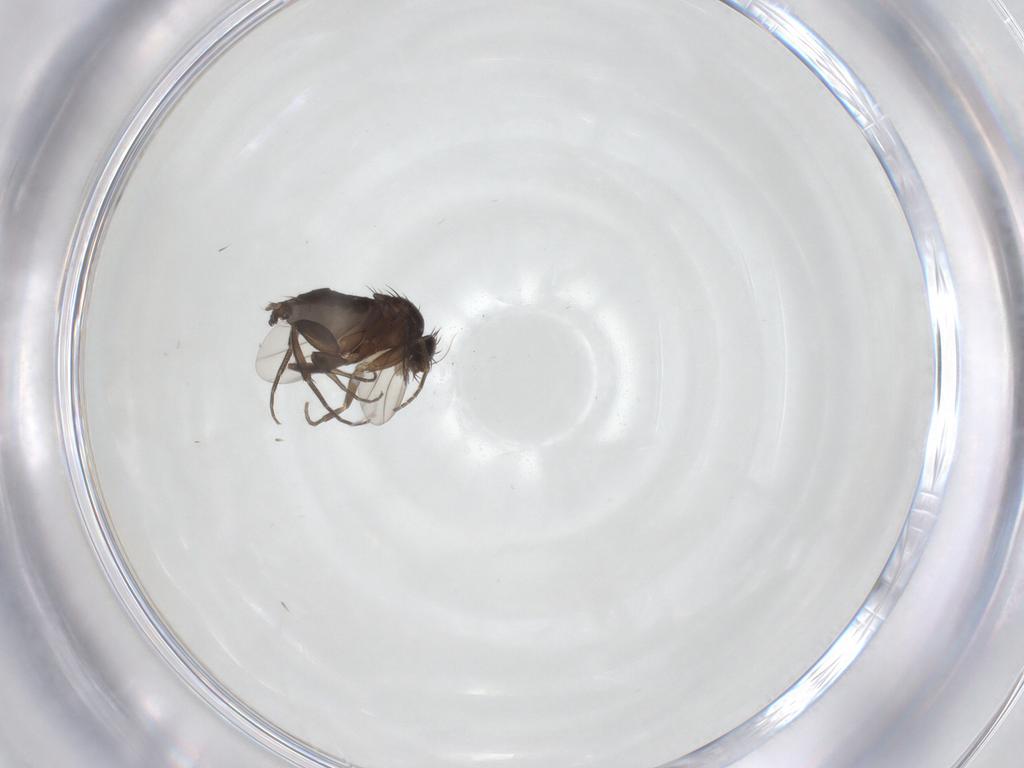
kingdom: Animalia
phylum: Arthropoda
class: Insecta
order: Diptera
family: Phoridae
